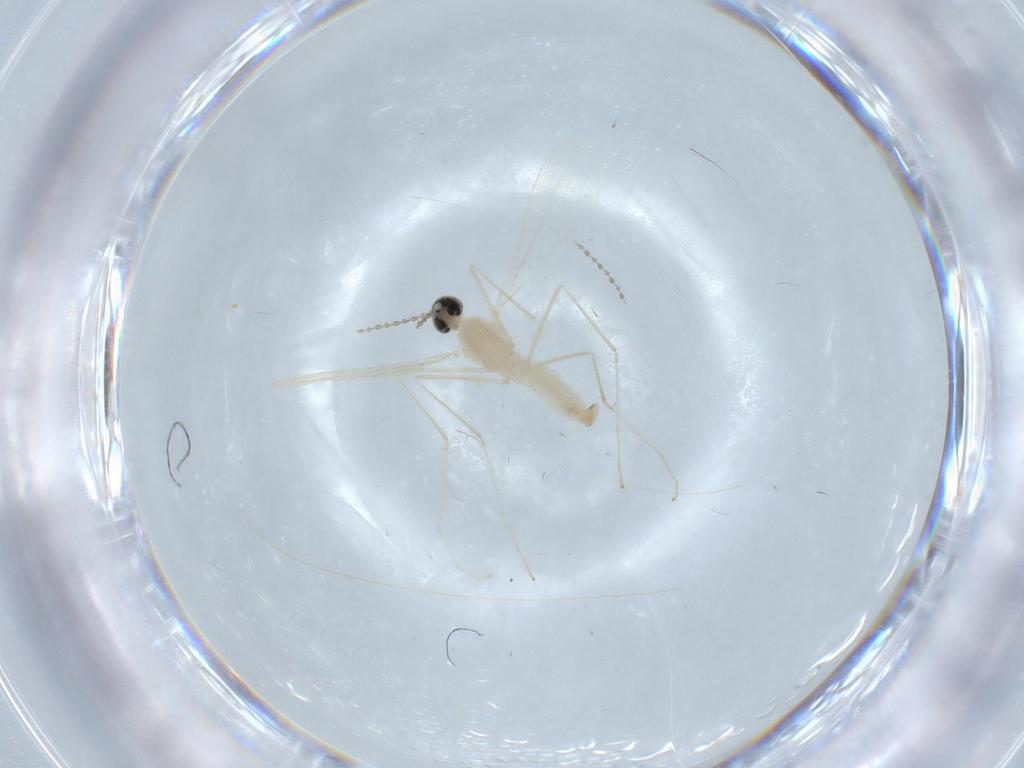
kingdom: Animalia
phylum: Arthropoda
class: Insecta
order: Diptera
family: Cecidomyiidae
